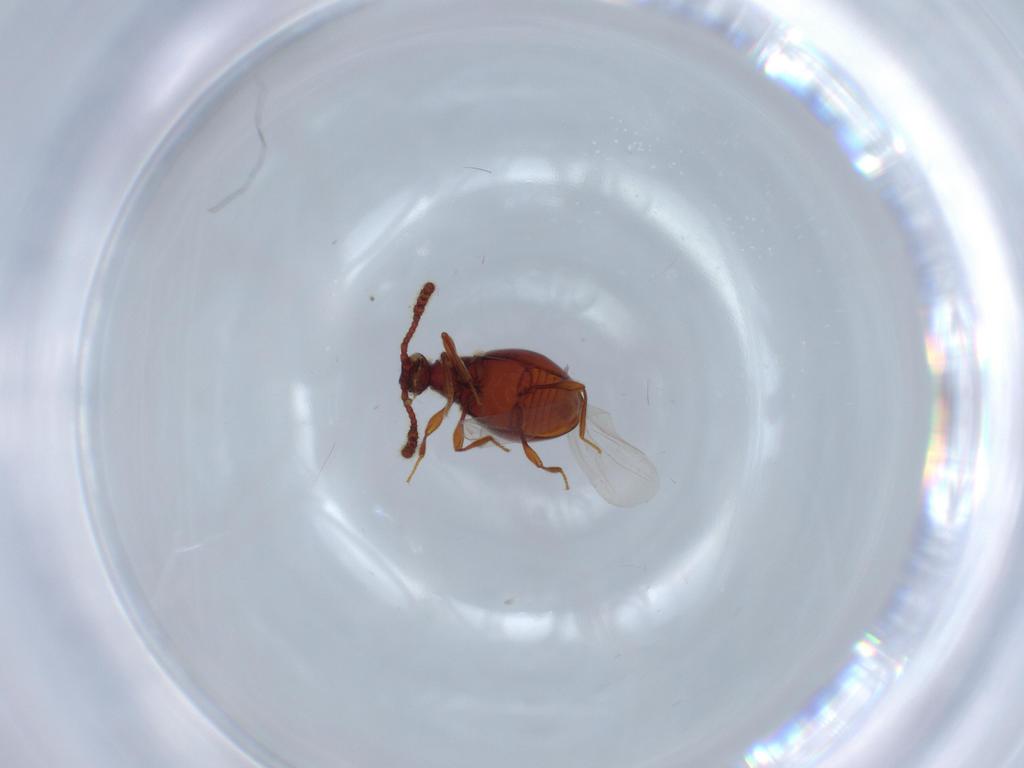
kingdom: Animalia
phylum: Arthropoda
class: Insecta
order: Coleoptera
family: Staphylinidae
